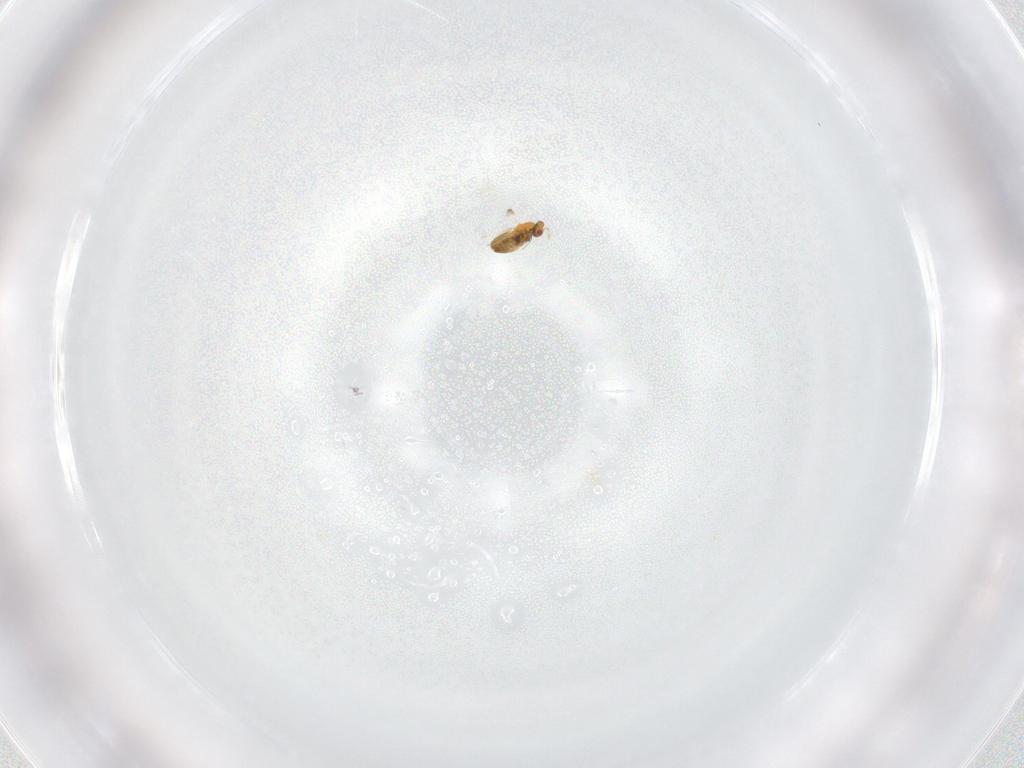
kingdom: Animalia
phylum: Arthropoda
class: Insecta
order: Hymenoptera
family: Trichogrammatidae
